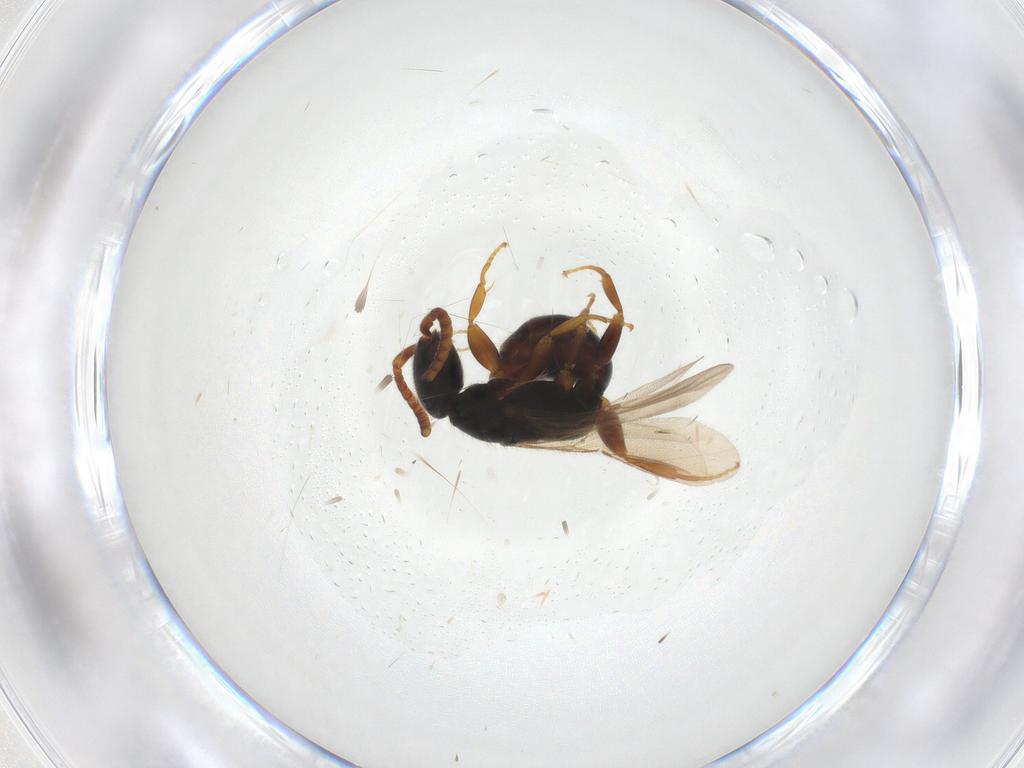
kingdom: Animalia
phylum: Arthropoda
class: Insecta
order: Hymenoptera
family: Bethylidae
